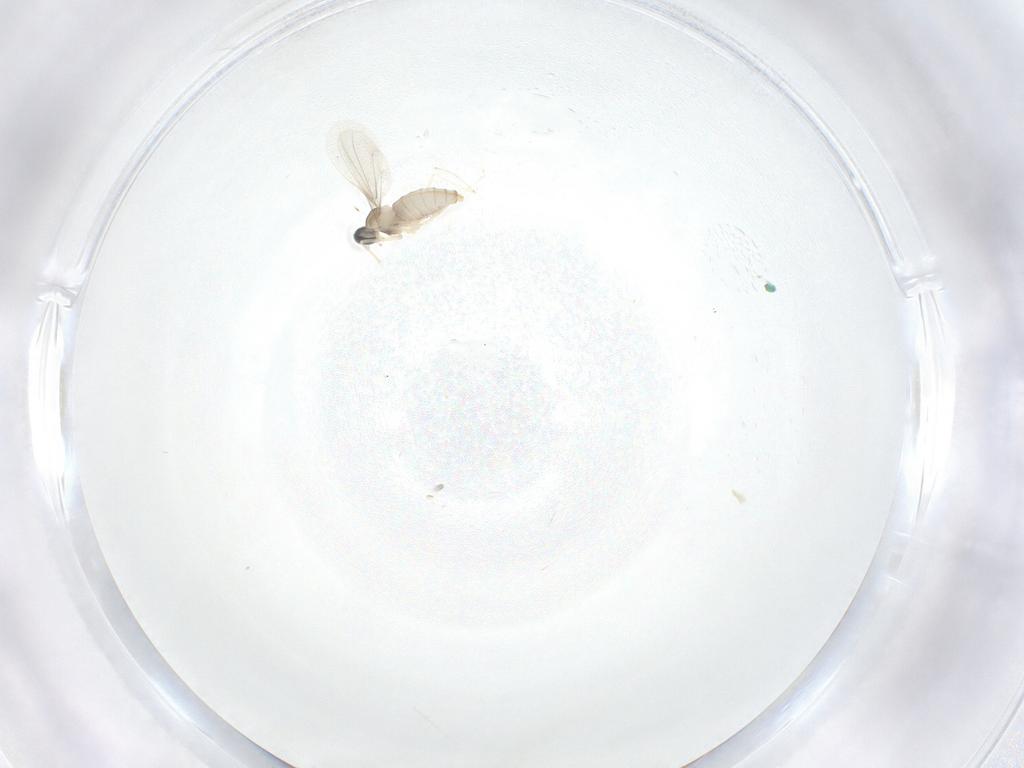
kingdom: Animalia
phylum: Arthropoda
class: Insecta
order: Diptera
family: Cecidomyiidae
